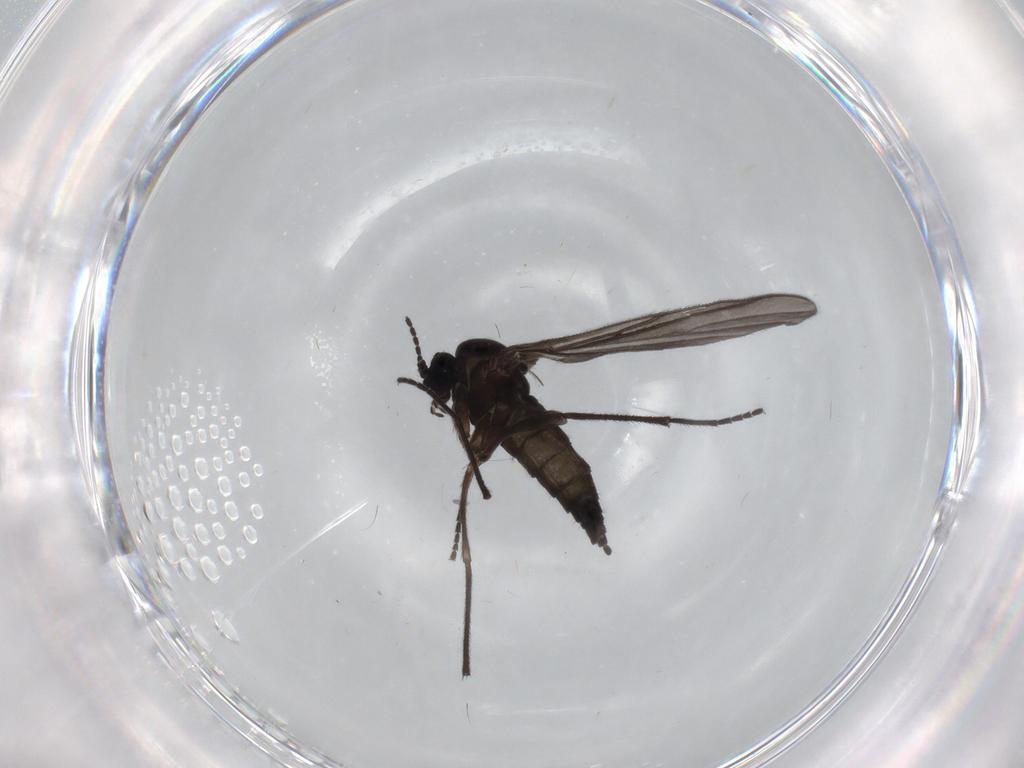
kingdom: Animalia
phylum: Arthropoda
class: Insecta
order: Diptera
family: Sciaridae
